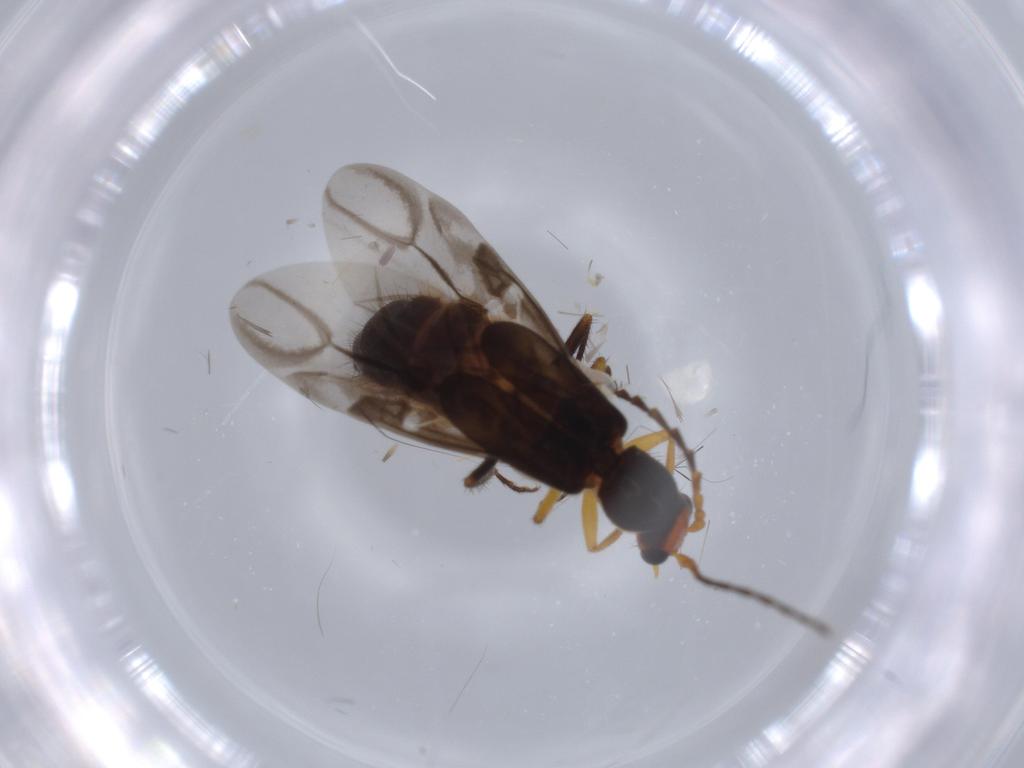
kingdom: Animalia
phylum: Arthropoda
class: Insecta
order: Coleoptera
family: Melyridae
